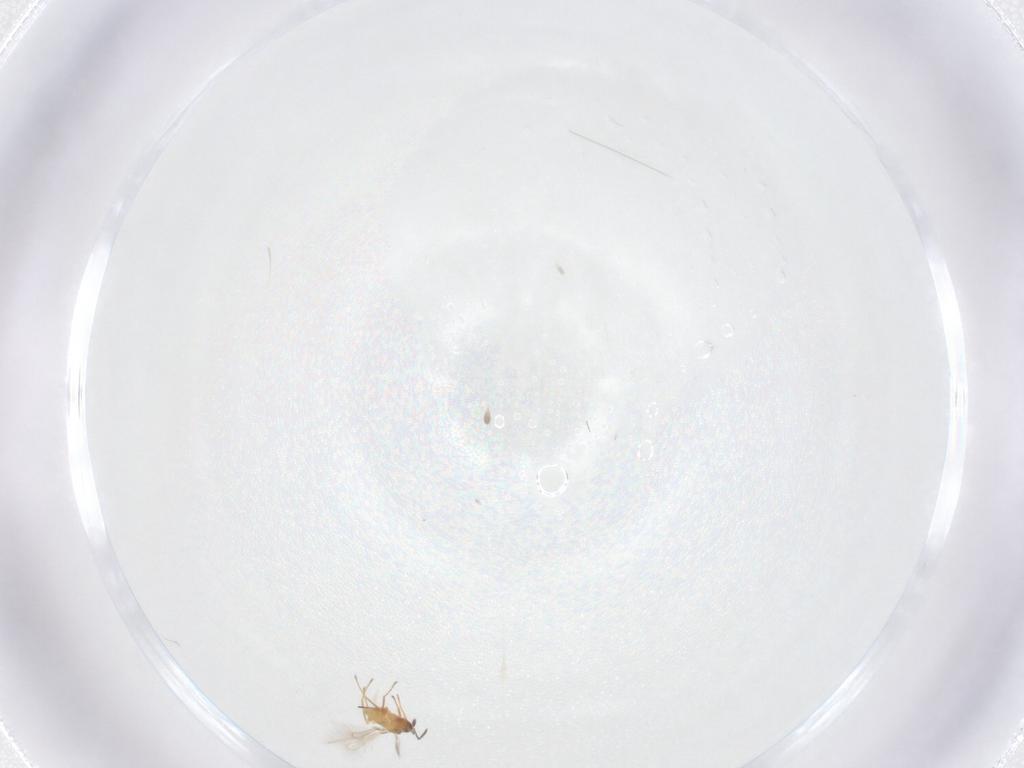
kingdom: Animalia
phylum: Arthropoda
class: Insecta
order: Hymenoptera
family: Mymaridae
